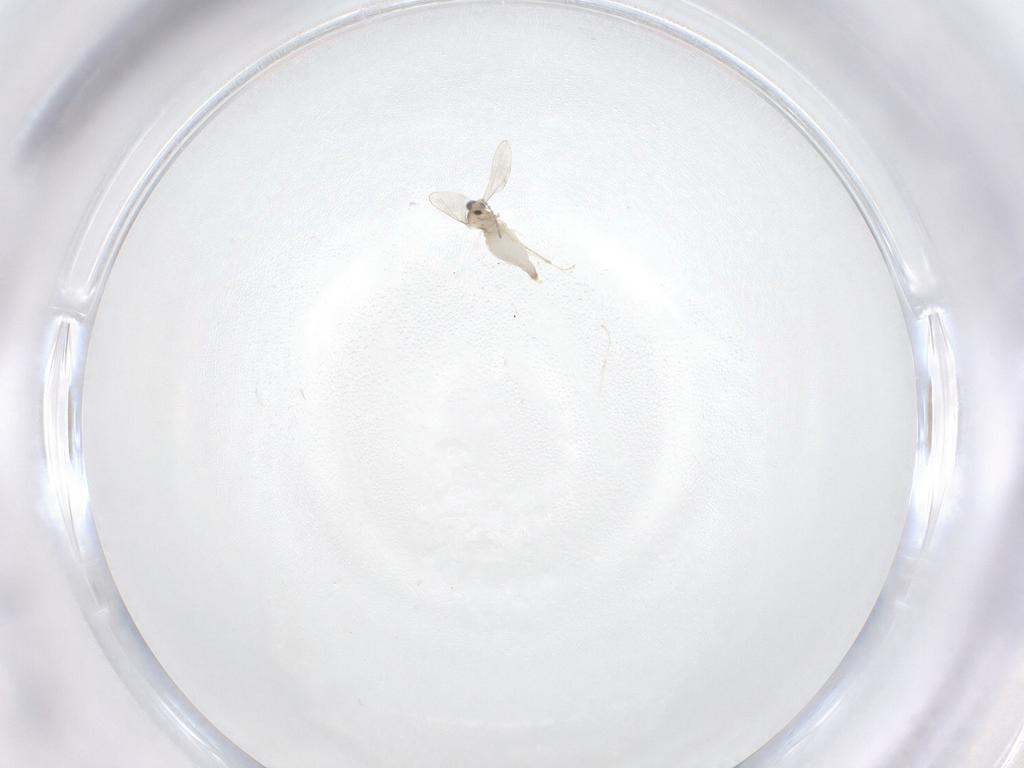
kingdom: Animalia
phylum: Arthropoda
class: Insecta
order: Diptera
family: Cecidomyiidae
